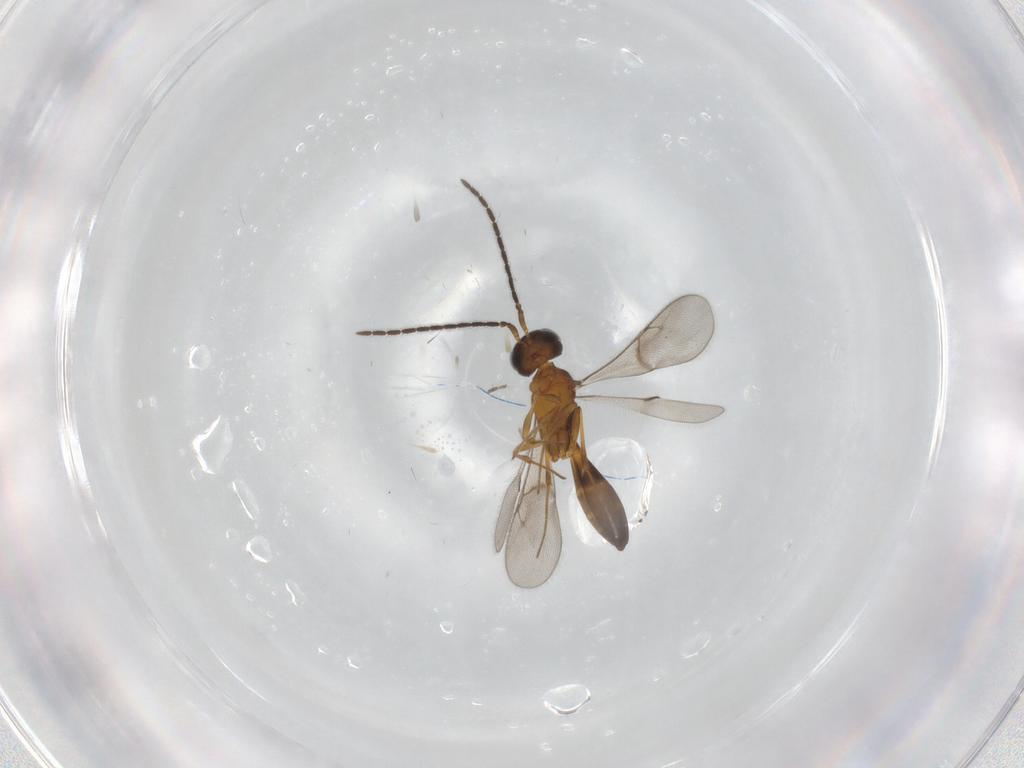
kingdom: Animalia
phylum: Arthropoda
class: Insecta
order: Hymenoptera
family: Scelionidae
